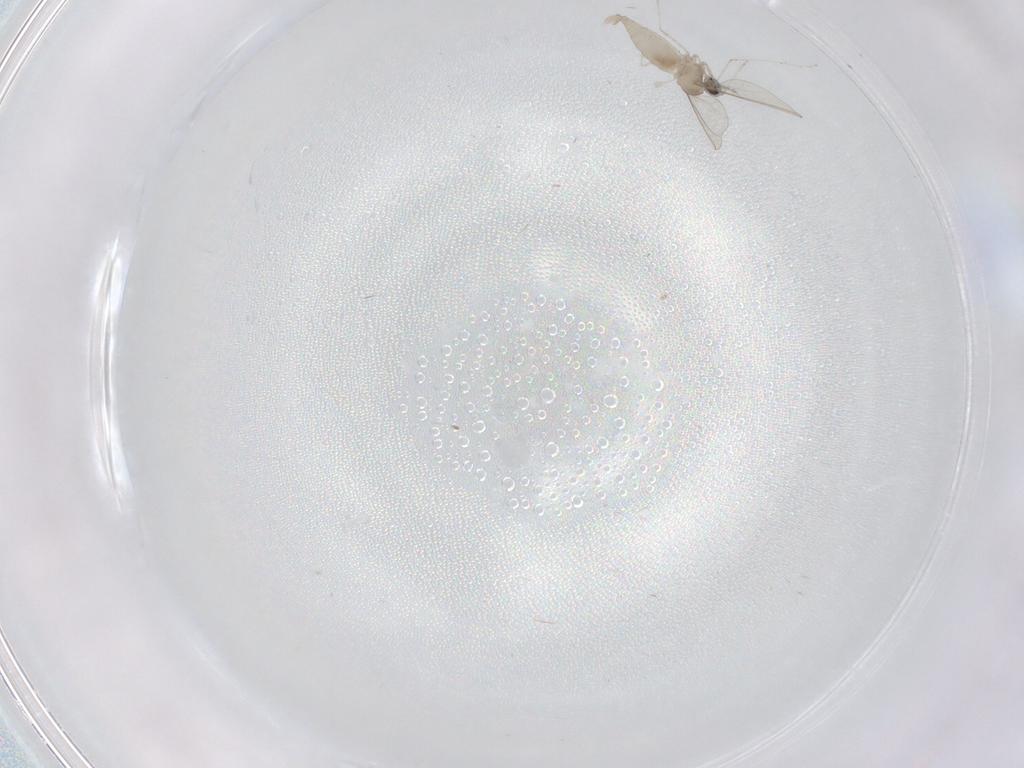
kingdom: Animalia
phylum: Arthropoda
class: Insecta
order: Diptera
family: Phoridae
